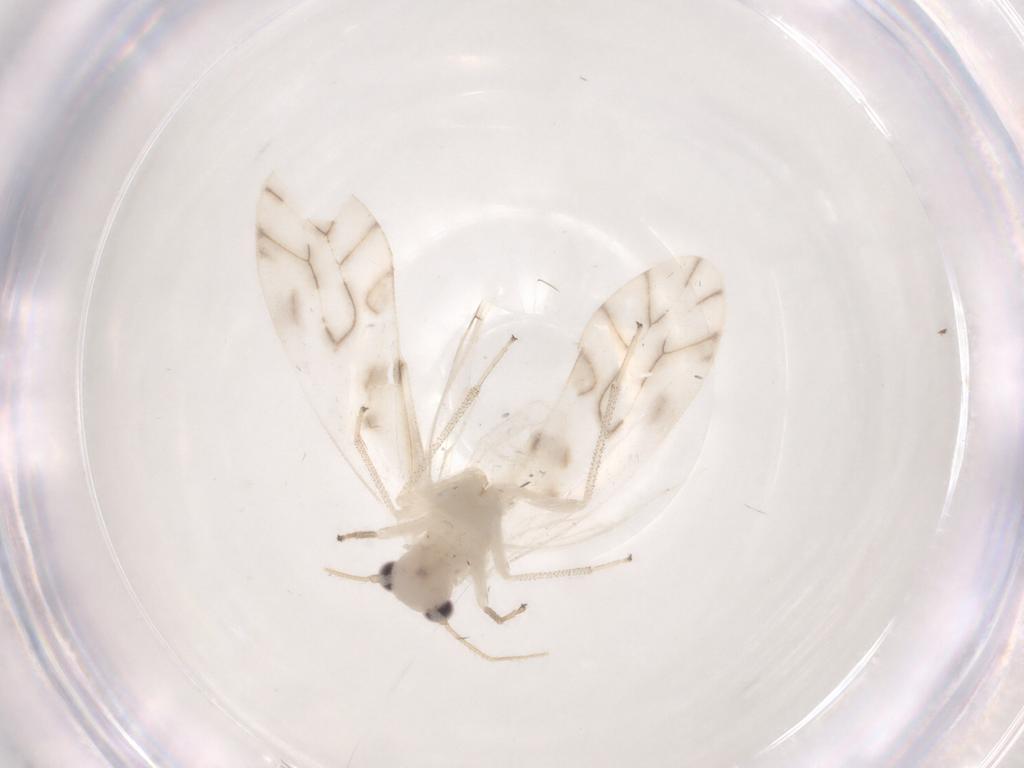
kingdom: Animalia
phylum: Arthropoda
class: Insecta
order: Psocodea
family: Caeciliusidae
